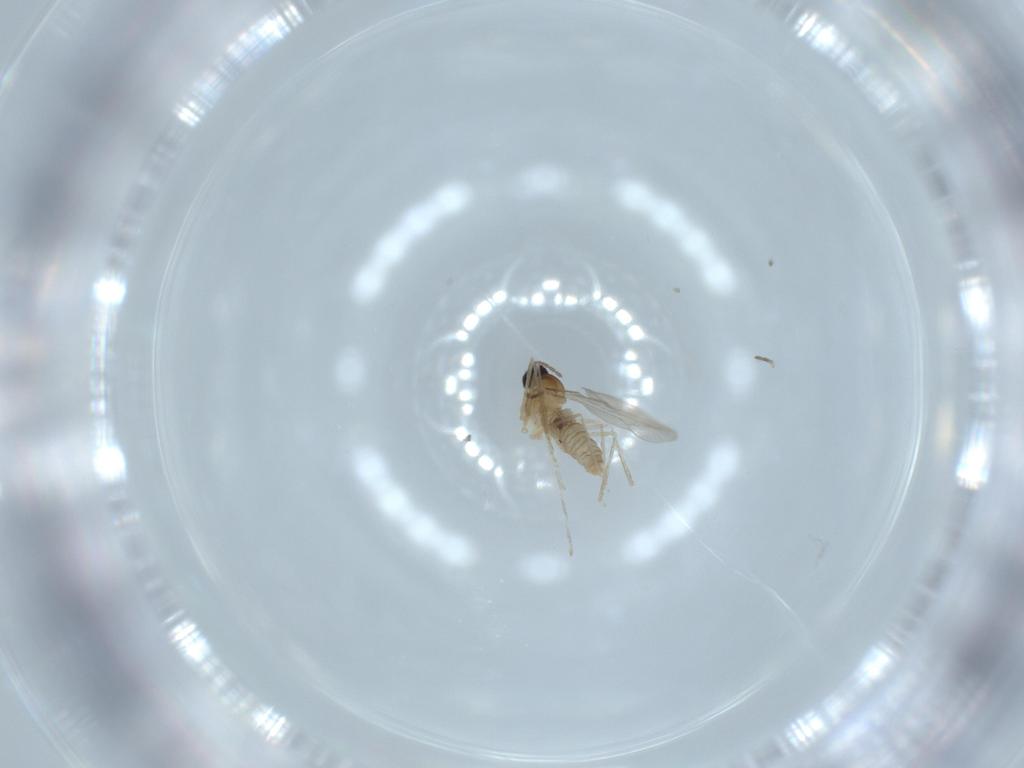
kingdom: Animalia
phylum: Arthropoda
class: Insecta
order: Diptera
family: Cecidomyiidae
